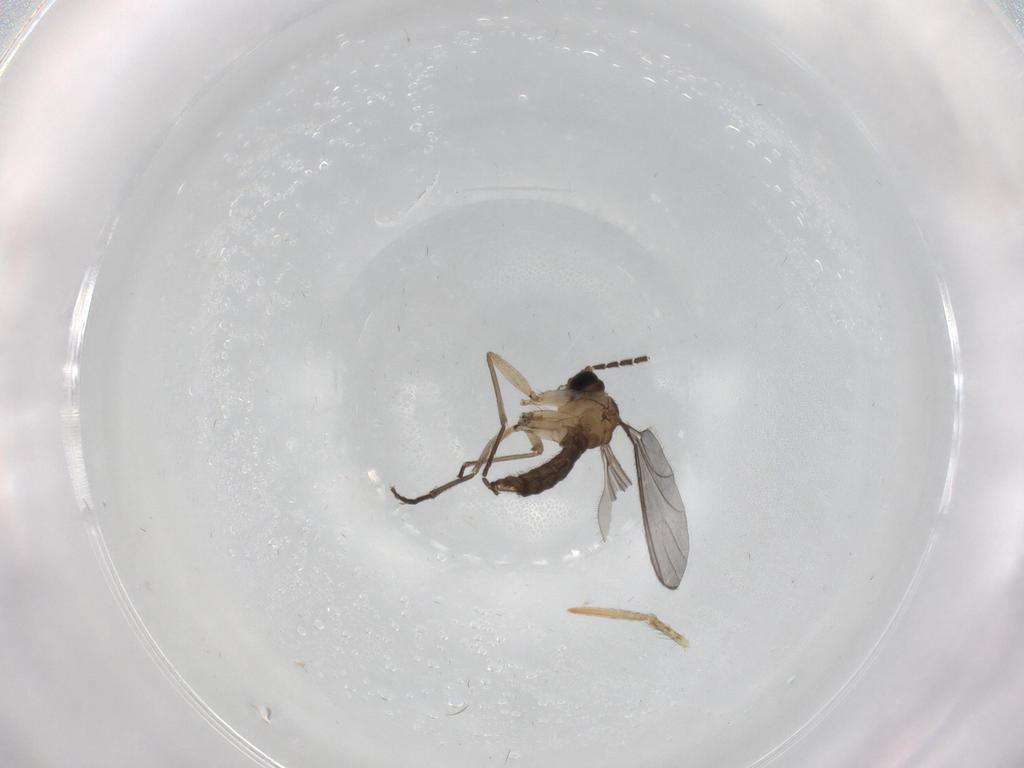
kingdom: Animalia
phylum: Arthropoda
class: Insecta
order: Diptera
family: Sciaridae
